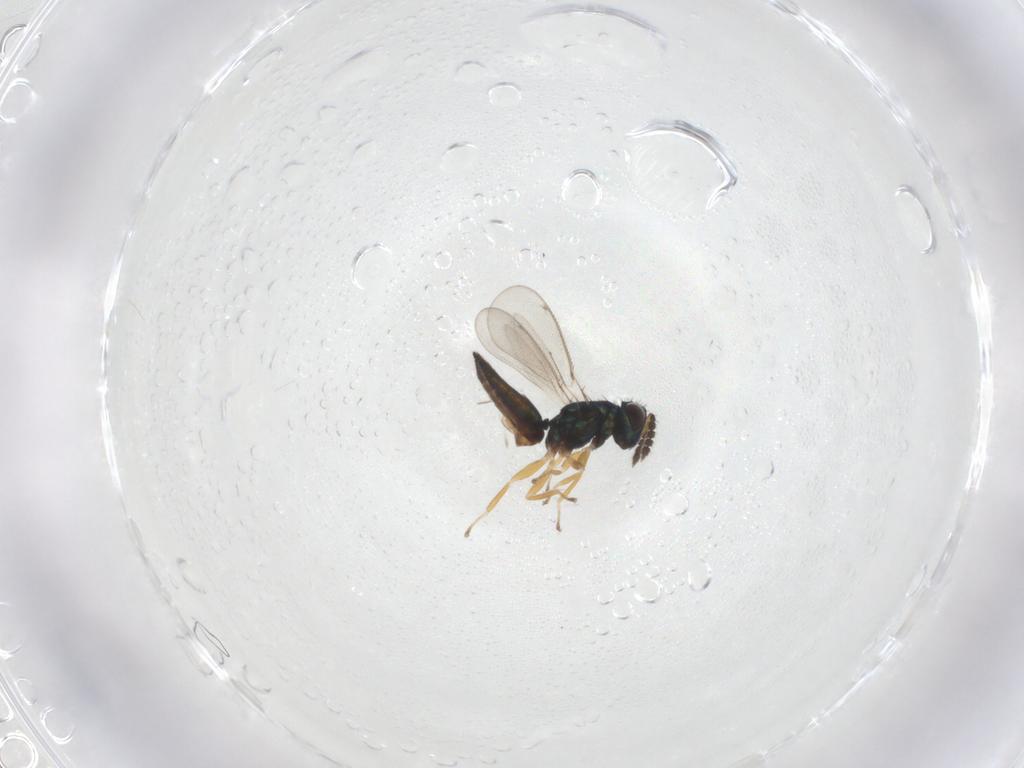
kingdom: Animalia
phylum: Arthropoda
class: Insecta
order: Hymenoptera
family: Eulophidae
